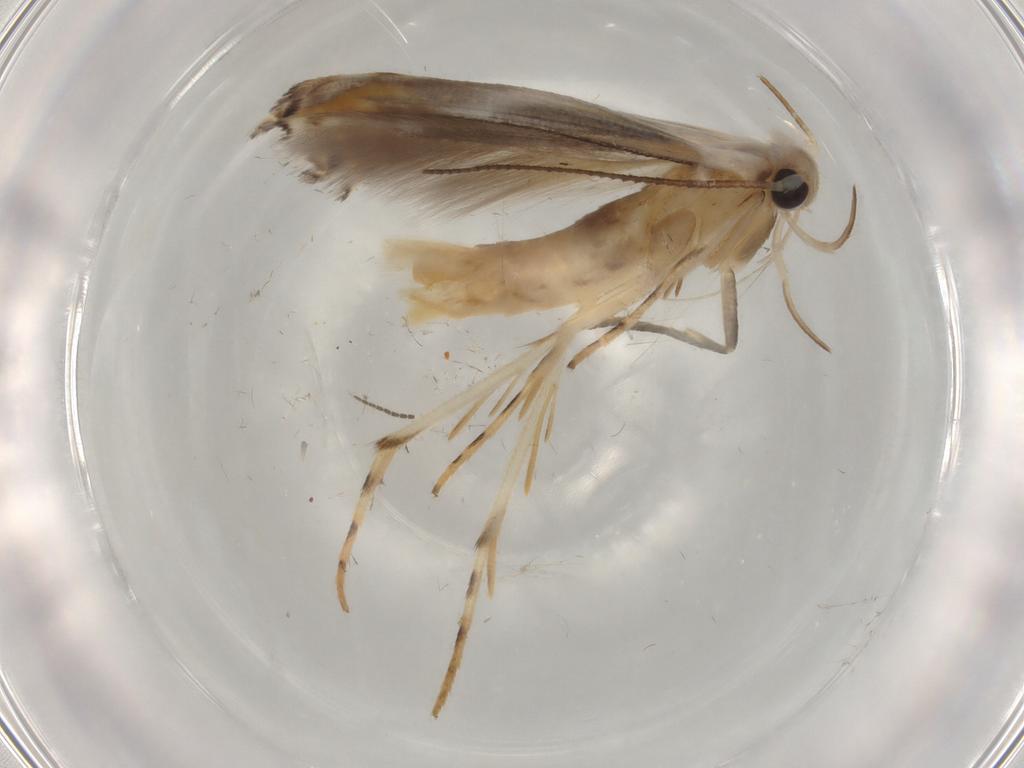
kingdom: Animalia
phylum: Arthropoda
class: Insecta
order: Lepidoptera
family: Gelechiidae
